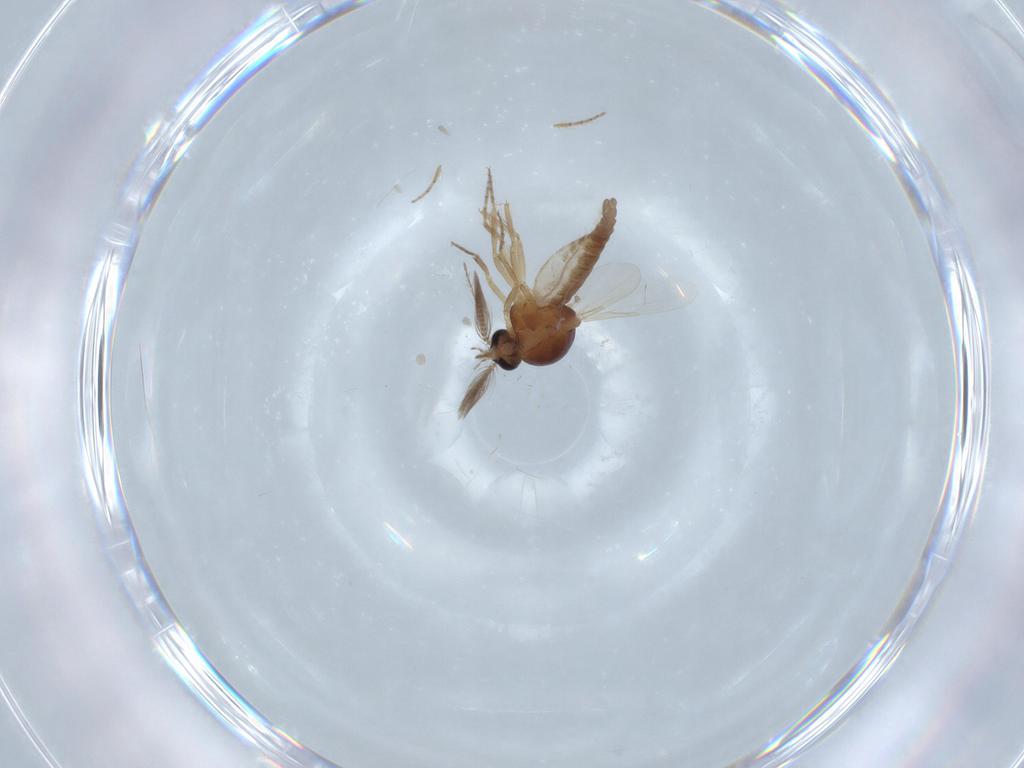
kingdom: Animalia
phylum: Arthropoda
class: Insecta
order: Diptera
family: Ceratopogonidae
